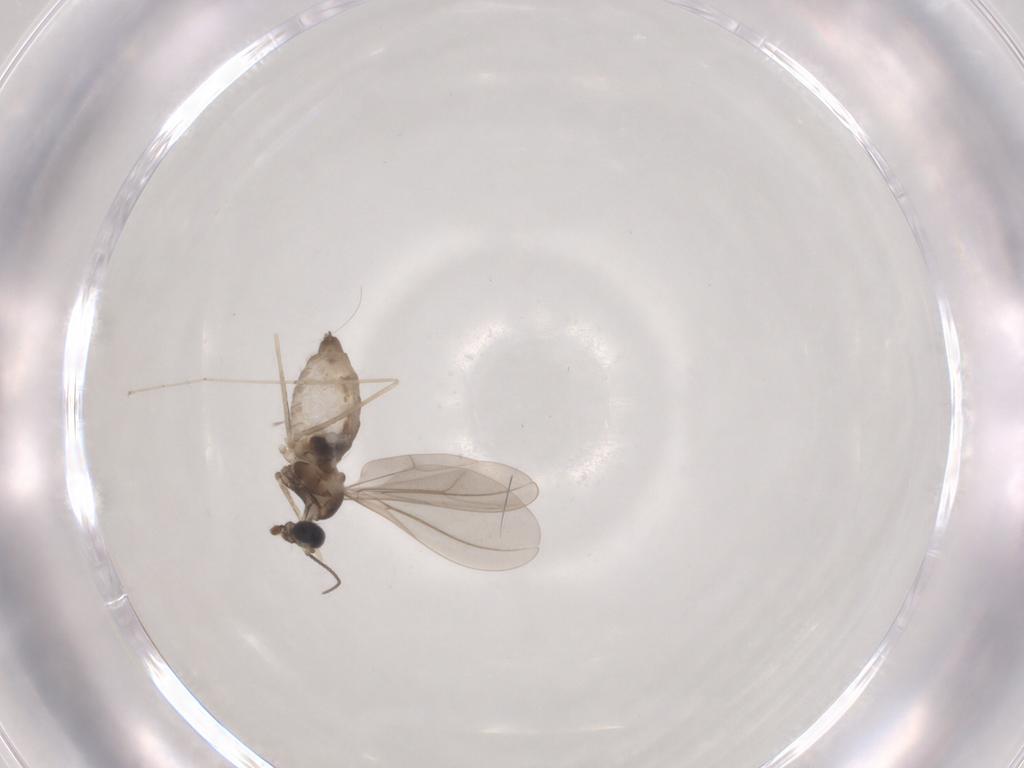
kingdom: Animalia
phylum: Arthropoda
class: Insecta
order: Diptera
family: Cecidomyiidae
